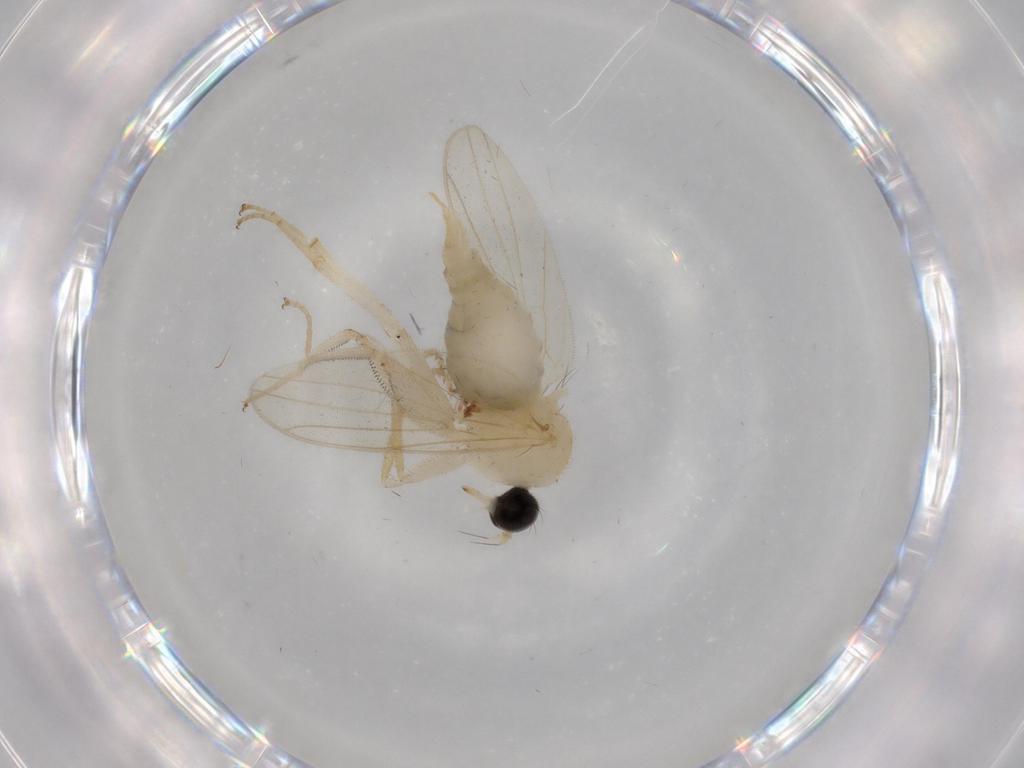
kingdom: Animalia
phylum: Arthropoda
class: Insecta
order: Diptera
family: Hybotidae
